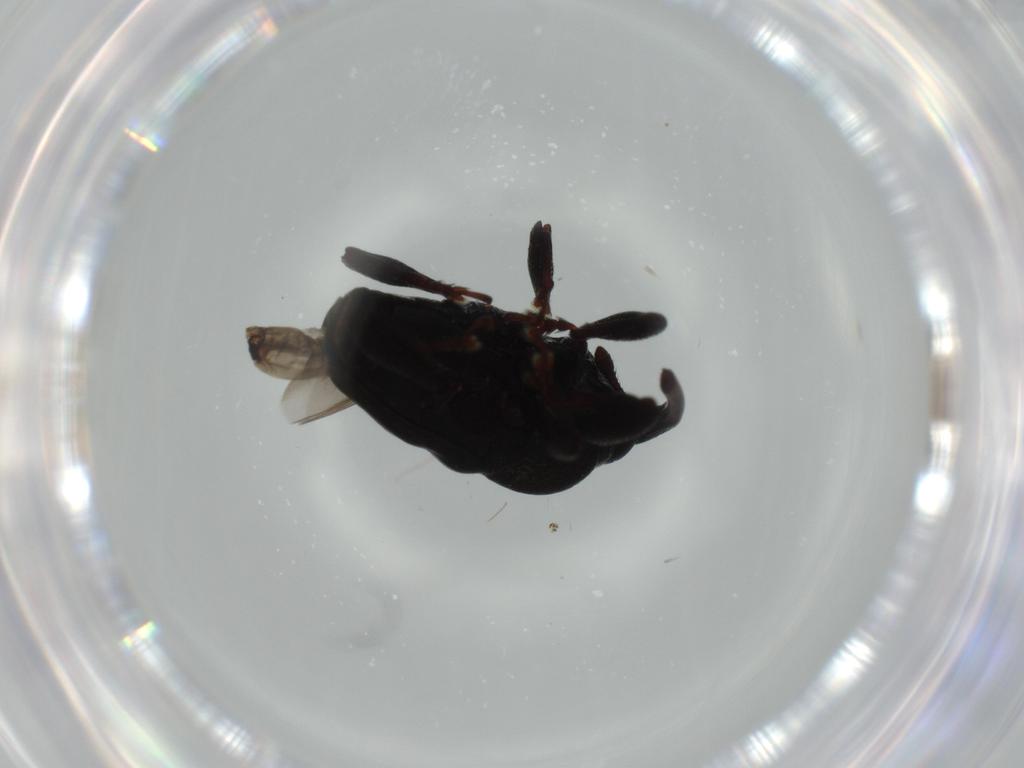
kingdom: Animalia
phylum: Arthropoda
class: Insecta
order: Coleoptera
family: Curculionidae
